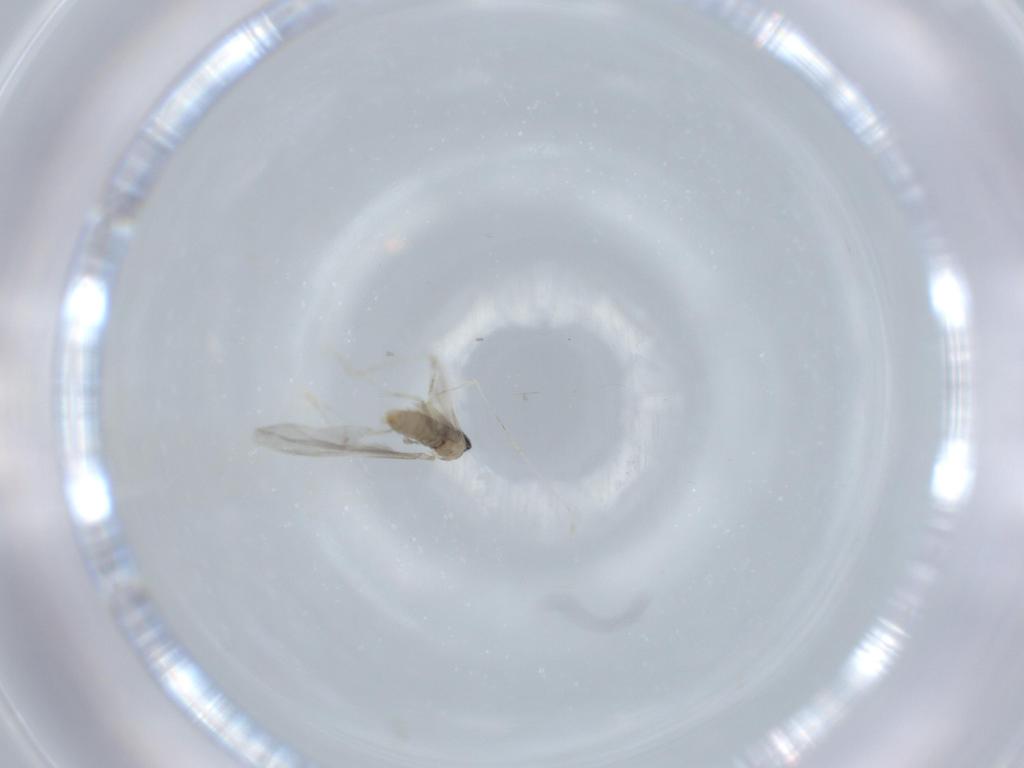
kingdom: Animalia
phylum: Arthropoda
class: Insecta
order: Diptera
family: Cecidomyiidae
